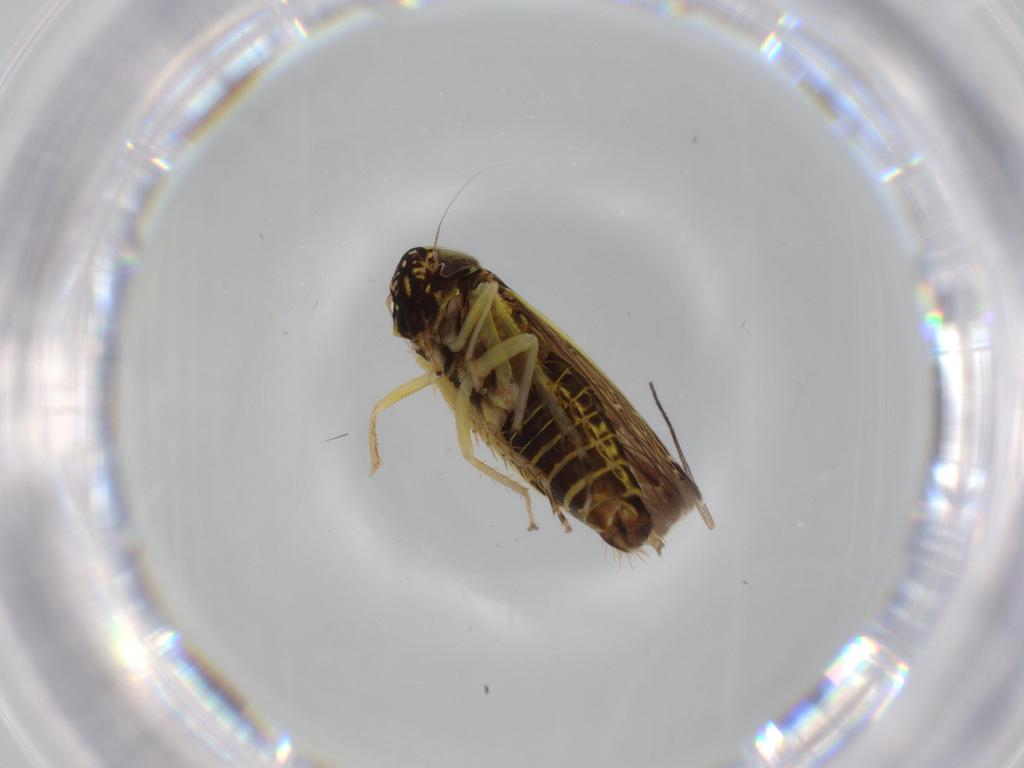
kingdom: Animalia
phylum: Arthropoda
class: Insecta
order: Hemiptera
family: Cicadellidae
